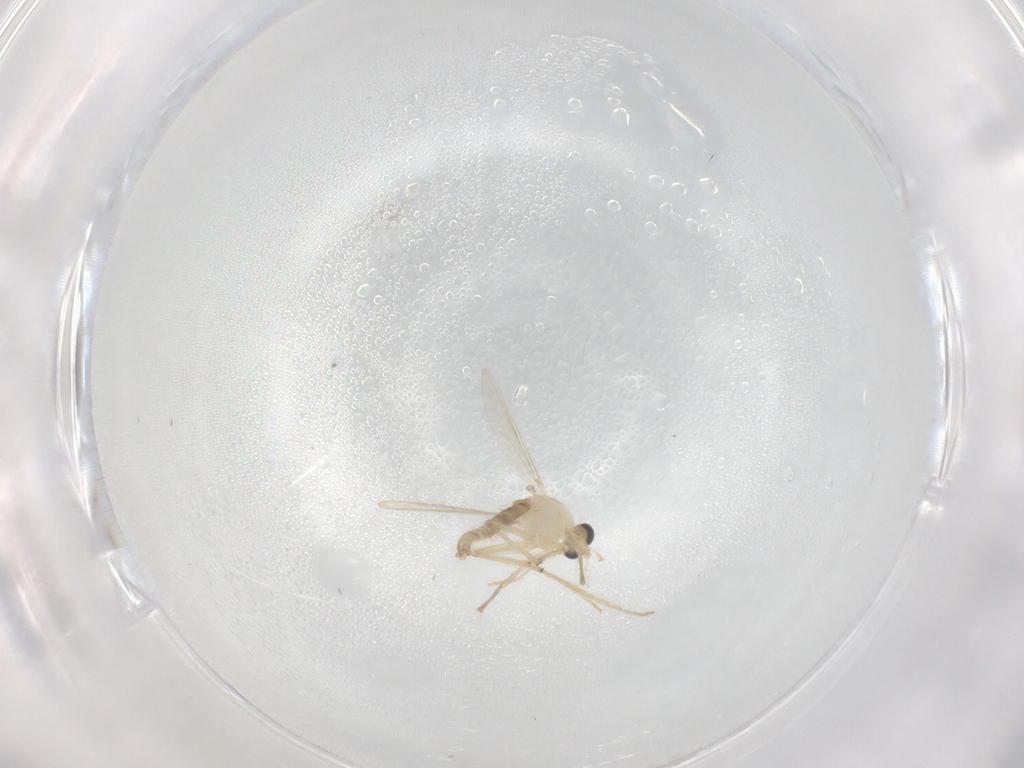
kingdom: Animalia
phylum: Arthropoda
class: Insecta
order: Diptera
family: Chironomidae
